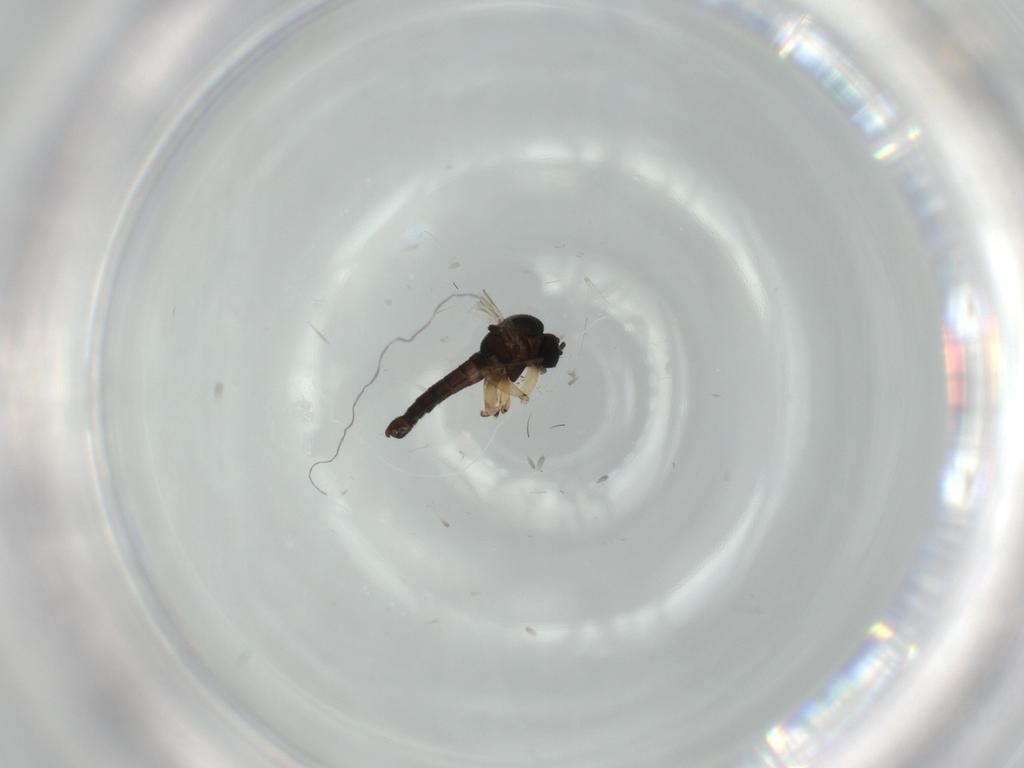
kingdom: Animalia
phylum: Arthropoda
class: Insecta
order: Diptera
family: Sciaridae
